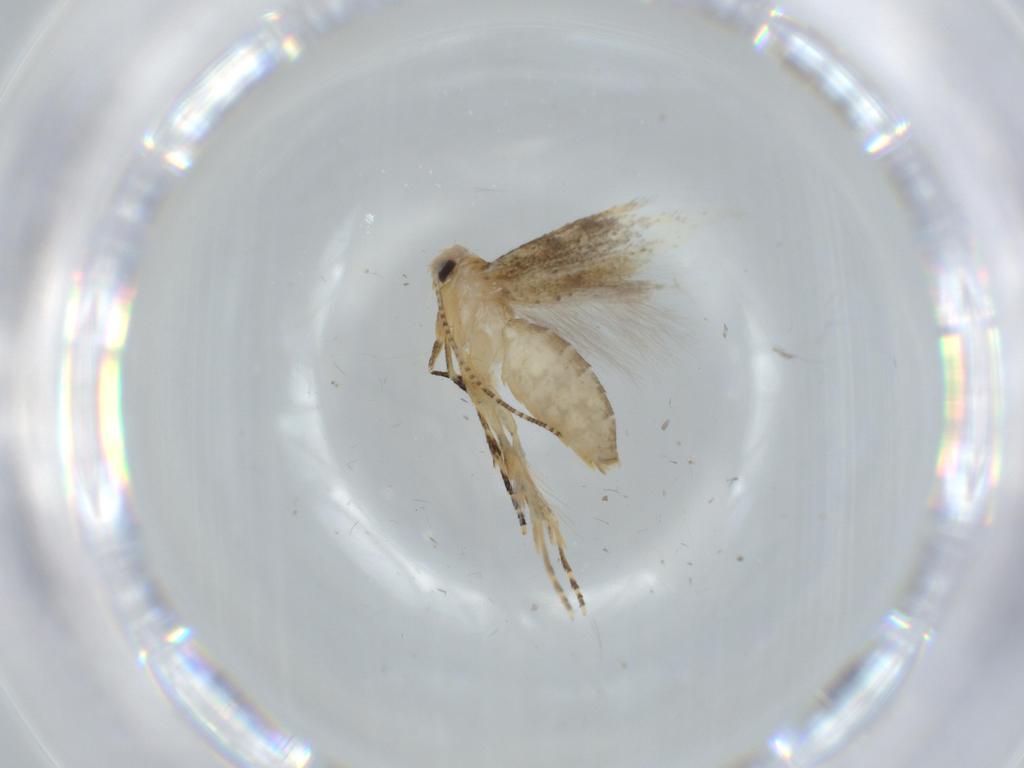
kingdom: Animalia
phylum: Arthropoda
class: Insecta
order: Lepidoptera
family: Bucculatricidae
